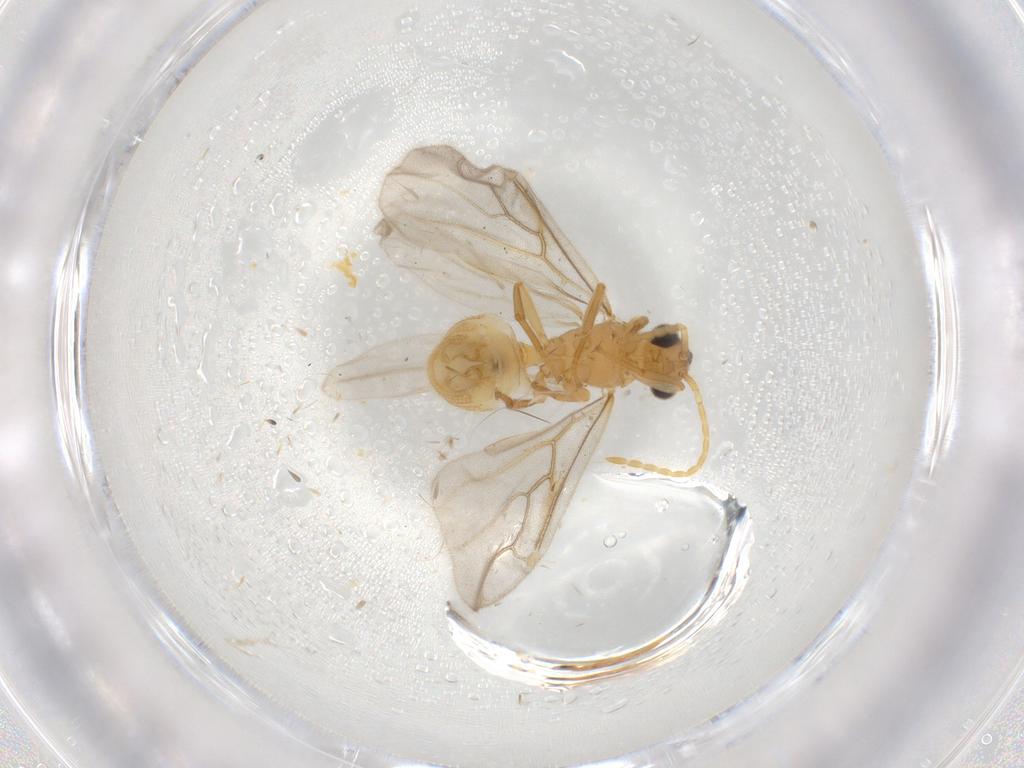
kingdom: Animalia
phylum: Arthropoda
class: Insecta
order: Hymenoptera
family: Formicidae
